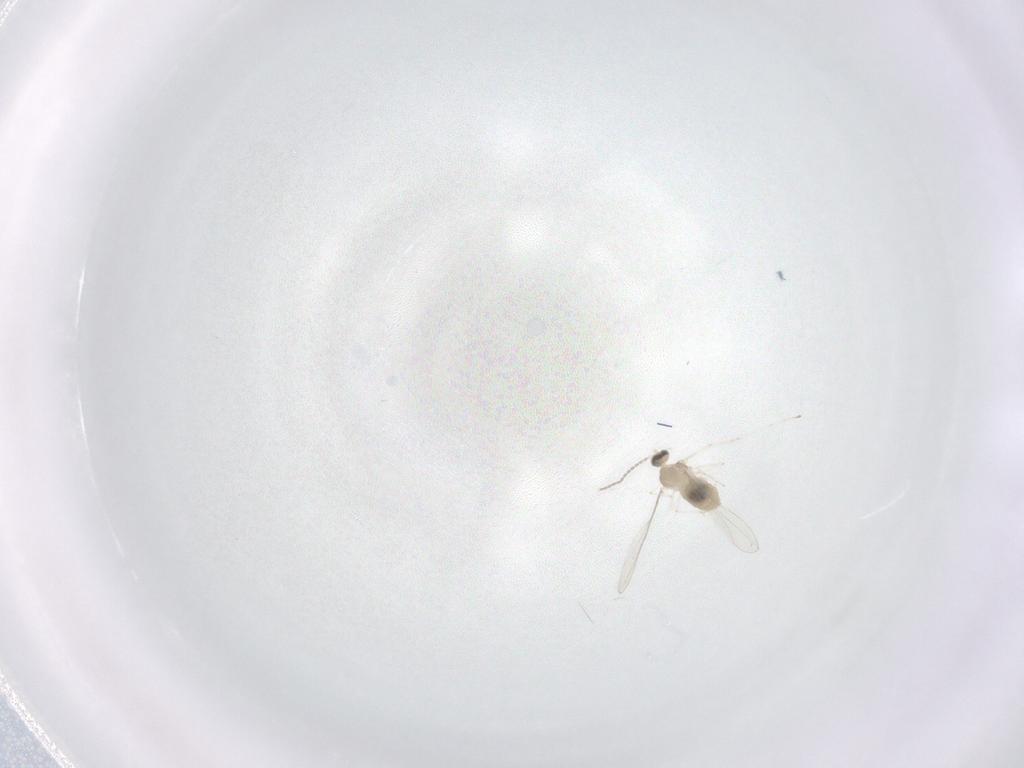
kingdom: Animalia
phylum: Arthropoda
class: Insecta
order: Diptera
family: Cecidomyiidae
